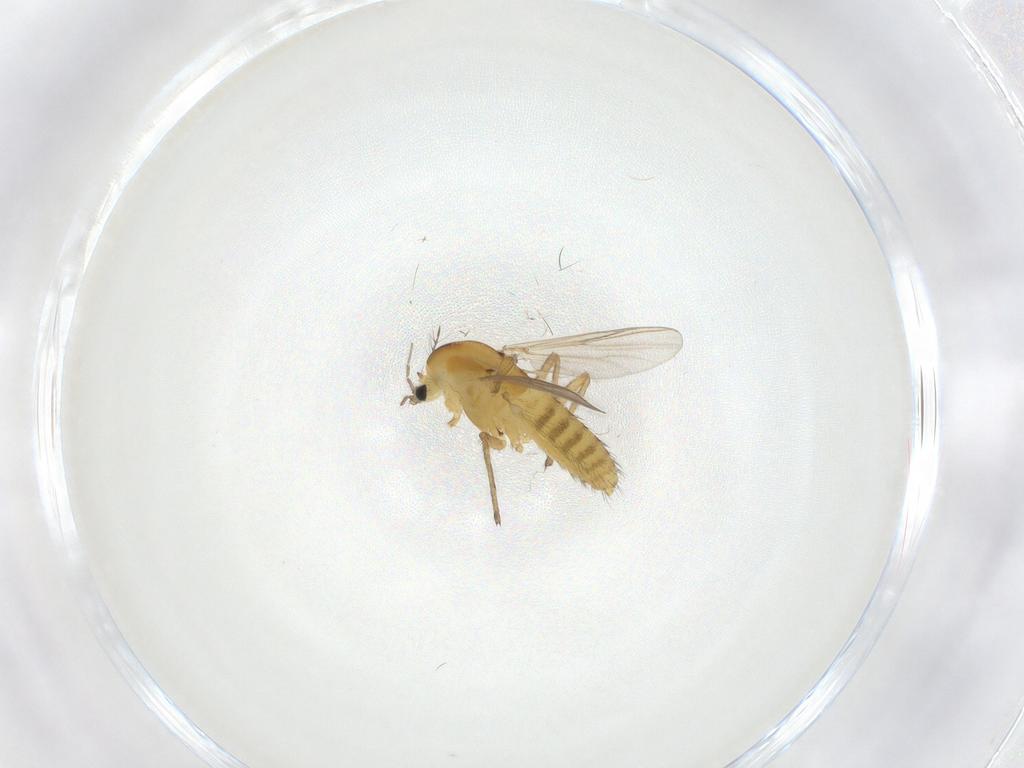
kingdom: Animalia
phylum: Arthropoda
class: Insecta
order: Diptera
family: Chironomidae
